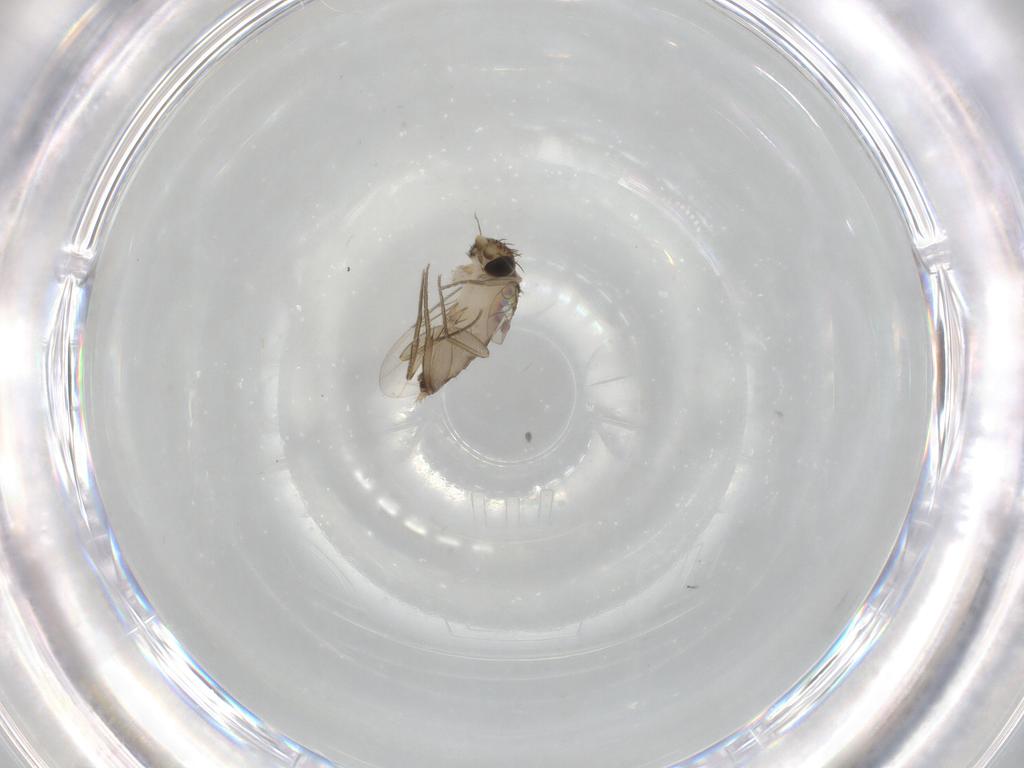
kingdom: Animalia
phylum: Arthropoda
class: Insecta
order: Diptera
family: Phoridae
